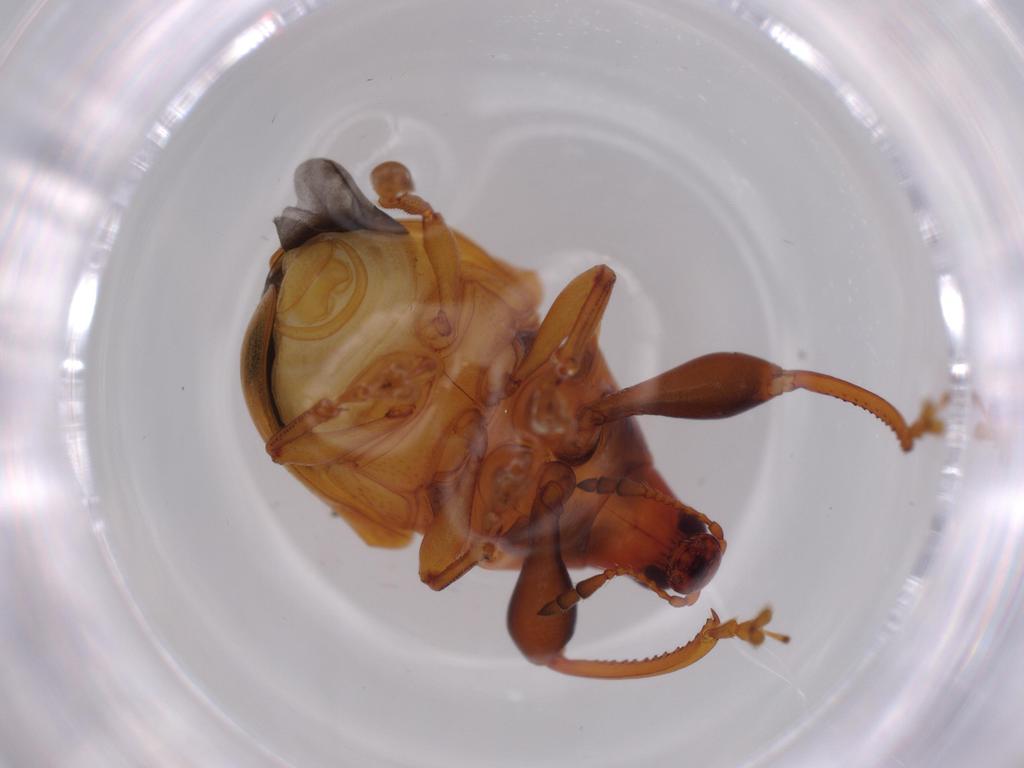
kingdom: Animalia
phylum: Arthropoda
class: Insecta
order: Coleoptera
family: Attelabidae
